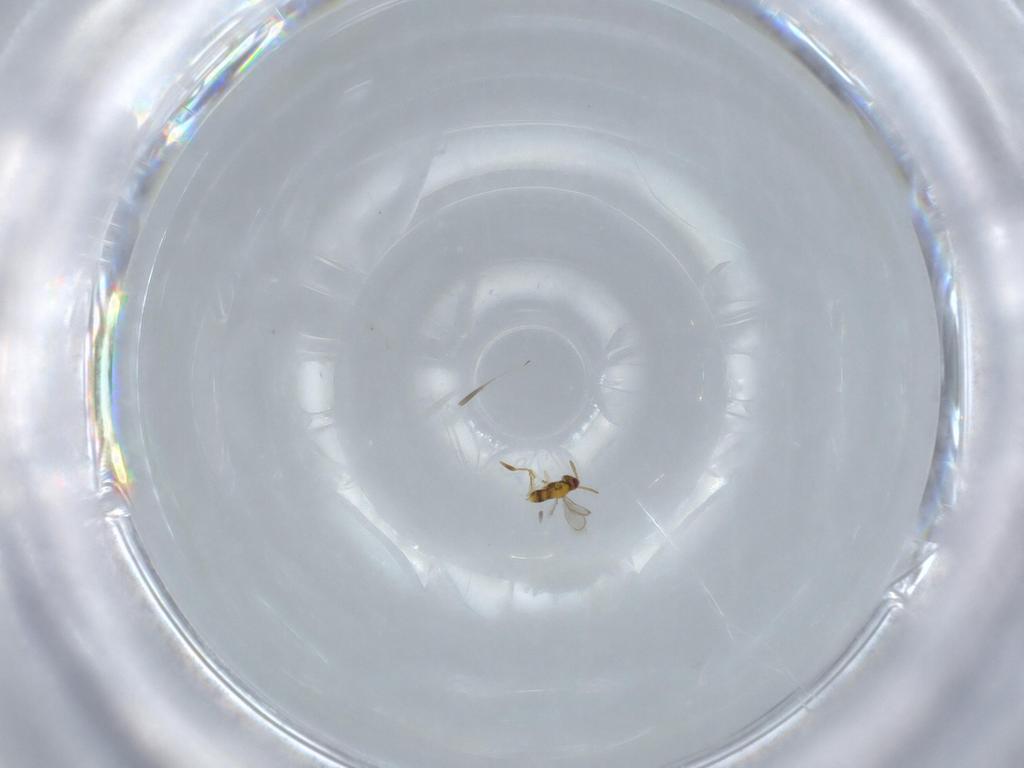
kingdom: Animalia
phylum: Arthropoda
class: Insecta
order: Hymenoptera
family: Aphelinidae
